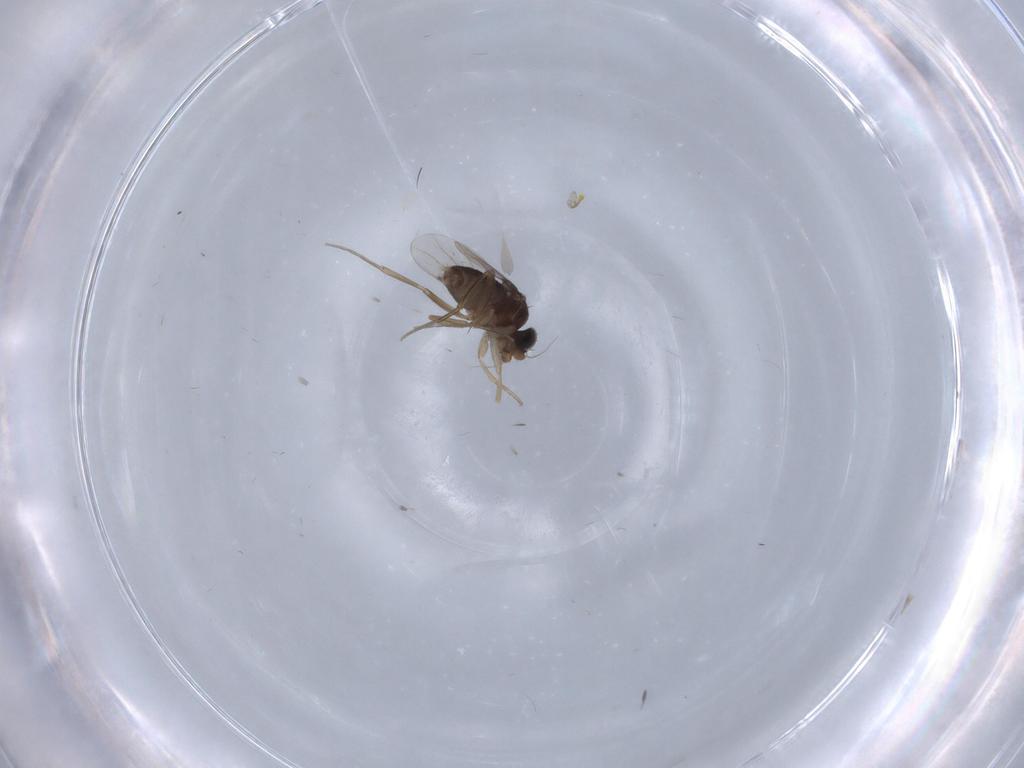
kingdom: Animalia
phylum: Arthropoda
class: Insecta
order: Diptera
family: Phoridae
